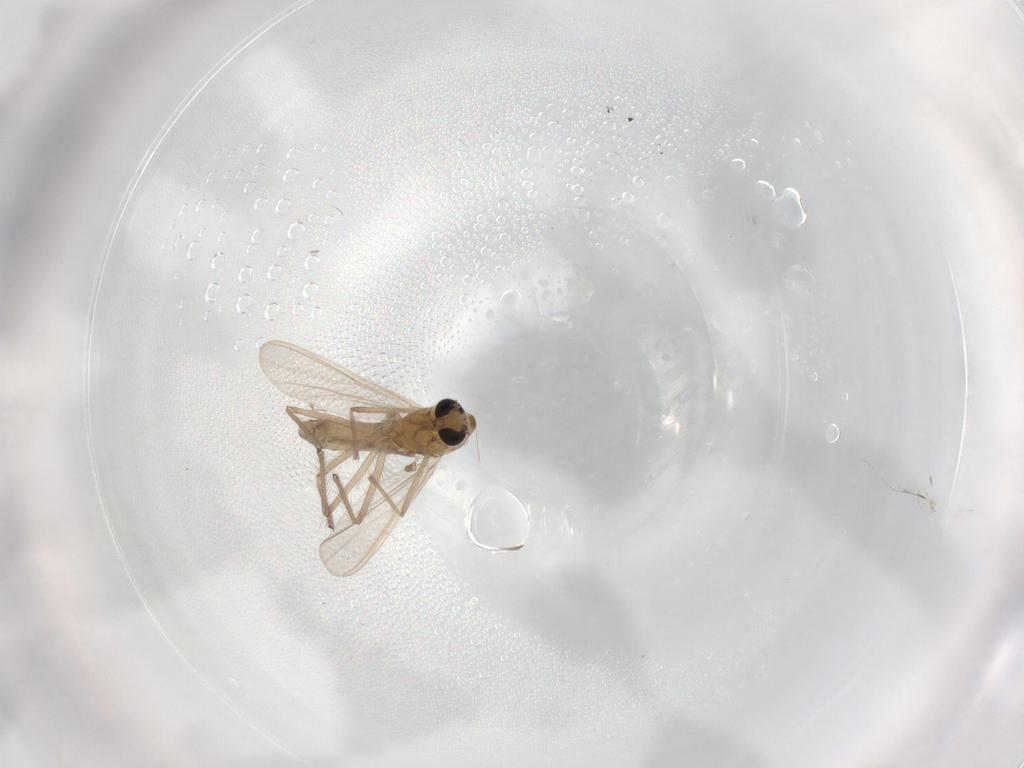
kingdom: Animalia
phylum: Arthropoda
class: Insecta
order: Diptera
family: Chironomidae
